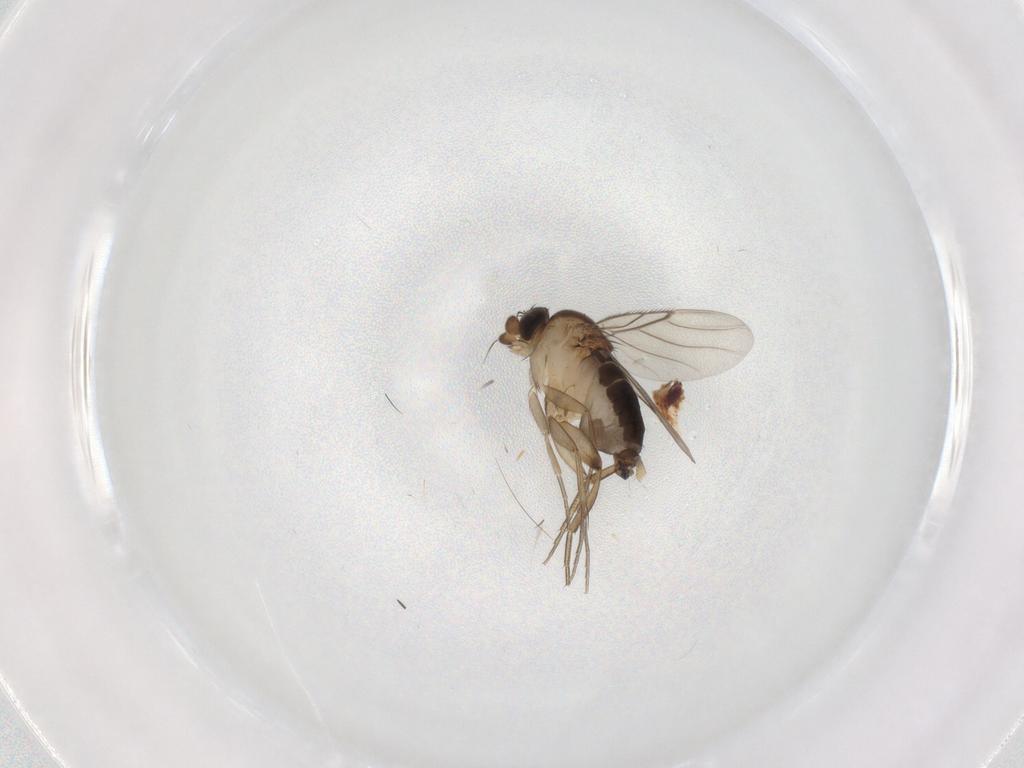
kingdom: Animalia
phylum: Arthropoda
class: Insecta
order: Diptera
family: Phoridae
